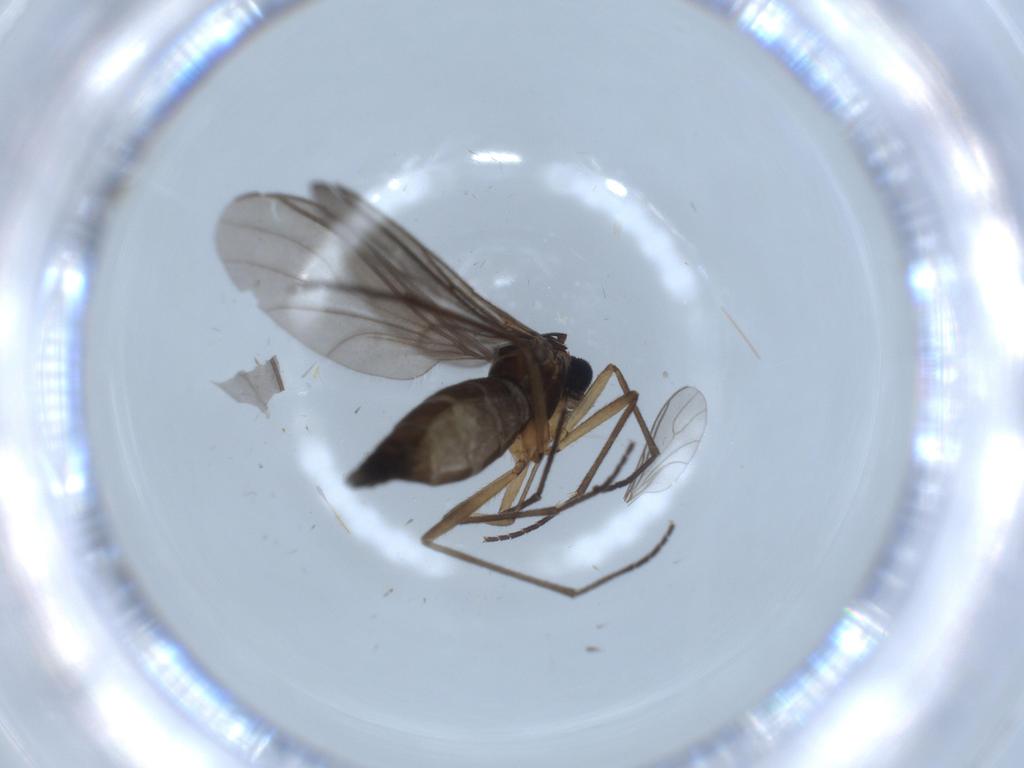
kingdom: Animalia
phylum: Arthropoda
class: Insecta
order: Diptera
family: Sciaridae
